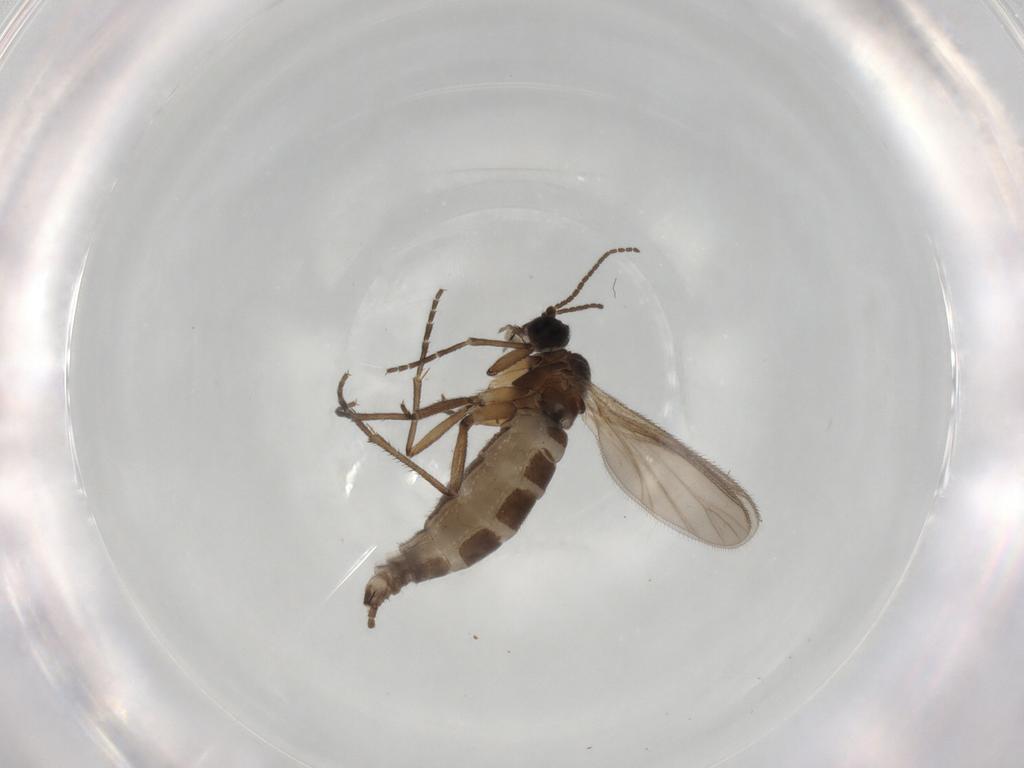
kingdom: Animalia
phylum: Arthropoda
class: Insecta
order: Diptera
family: Sciaridae
